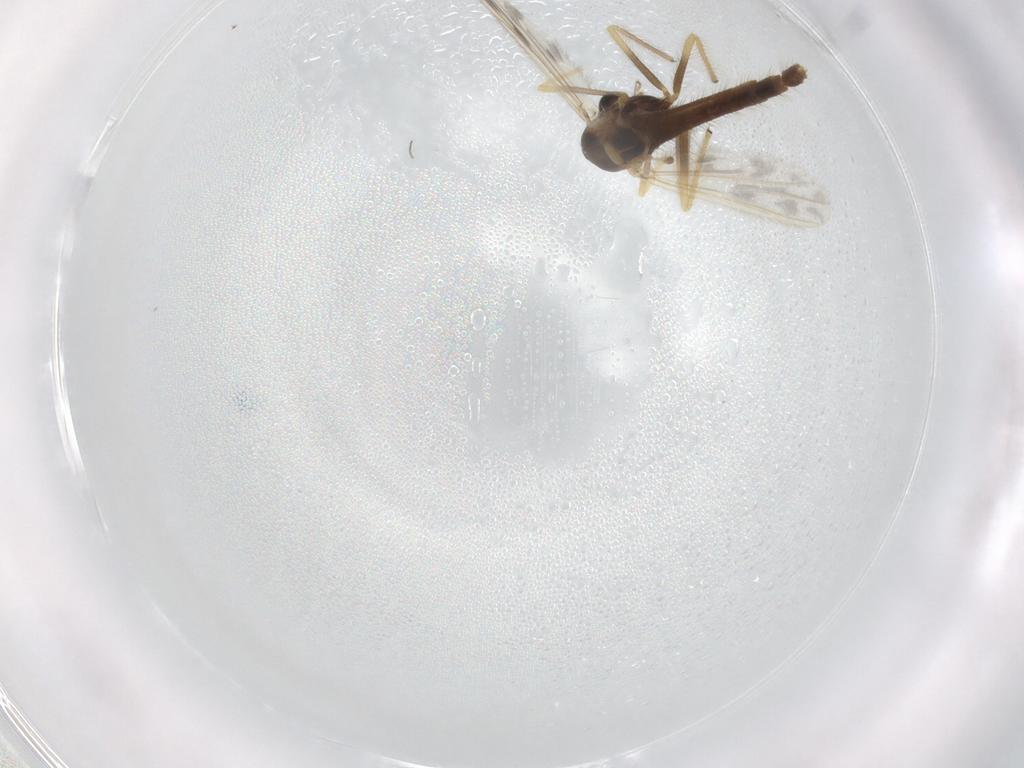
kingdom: Animalia
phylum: Arthropoda
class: Insecta
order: Diptera
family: Chironomidae
